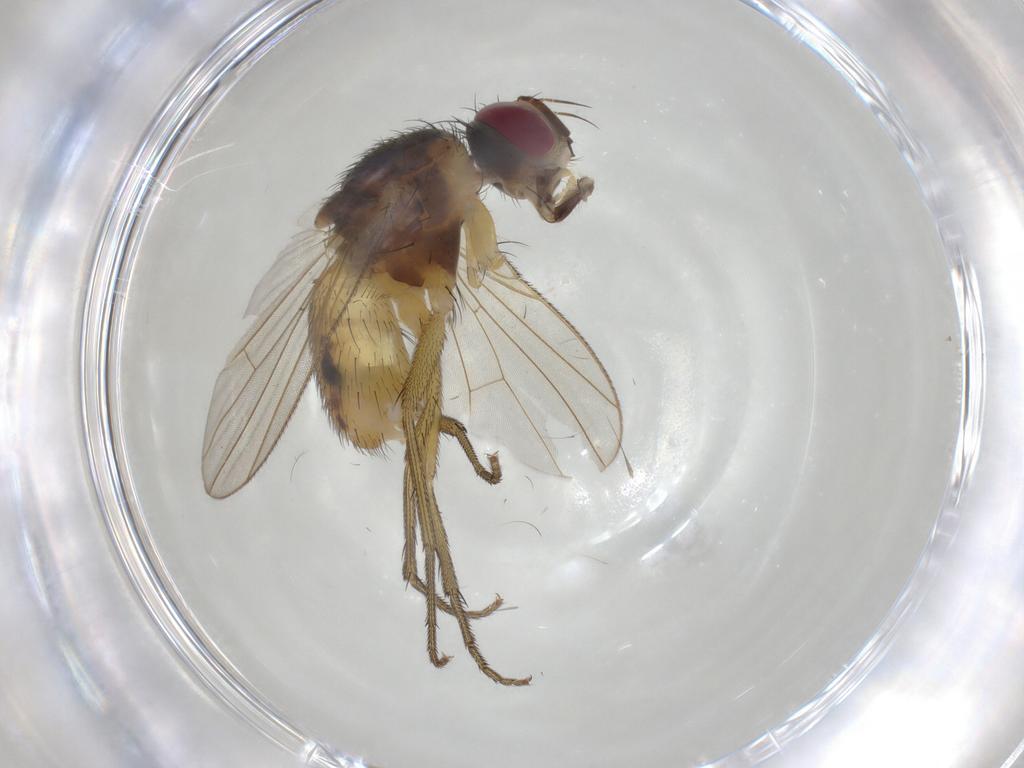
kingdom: Animalia
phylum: Arthropoda
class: Insecta
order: Diptera
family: Muscidae
